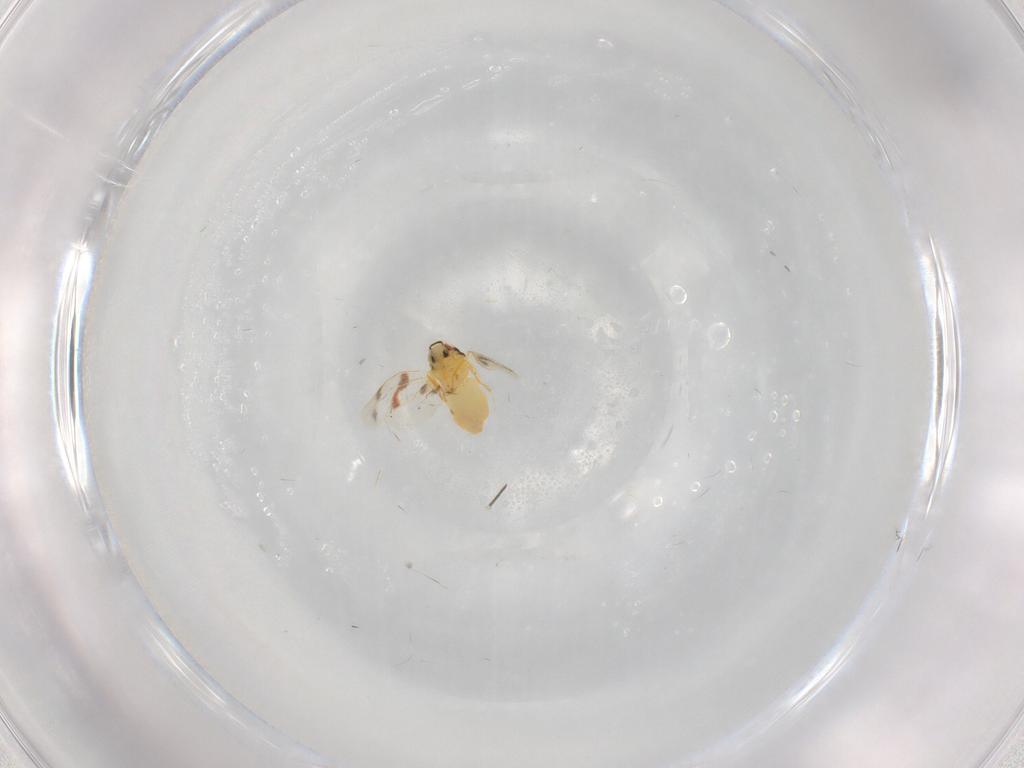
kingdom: Animalia
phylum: Arthropoda
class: Insecta
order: Hemiptera
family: Aleyrodidae
